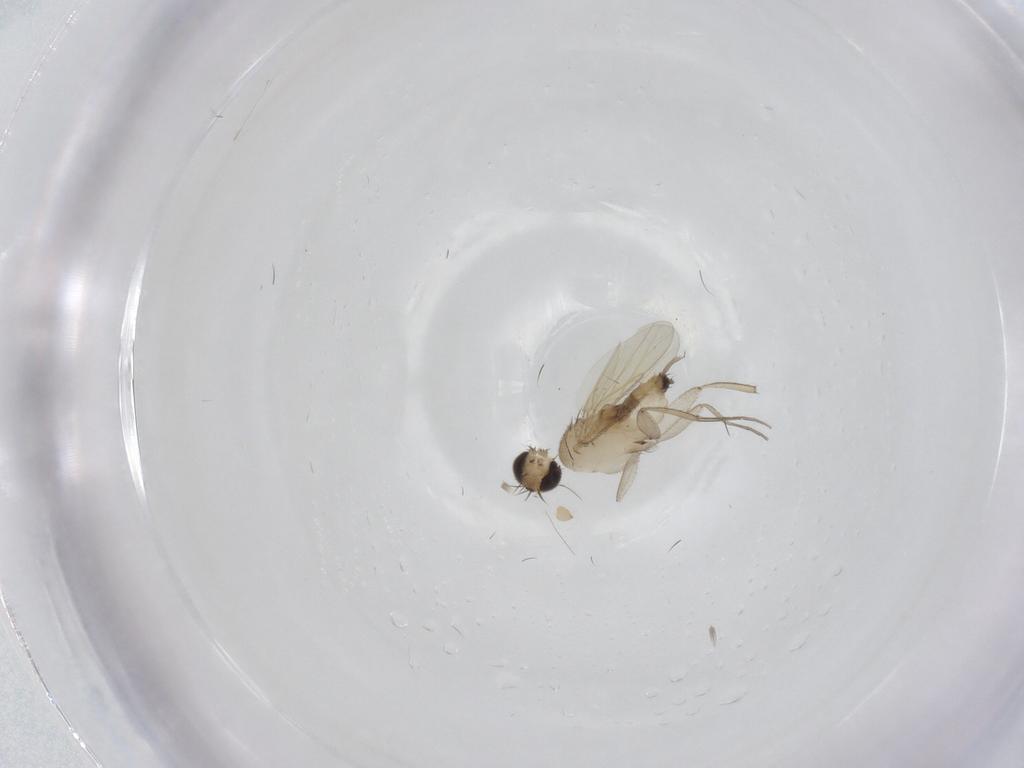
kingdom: Animalia
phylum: Arthropoda
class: Insecta
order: Diptera
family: Phoridae
